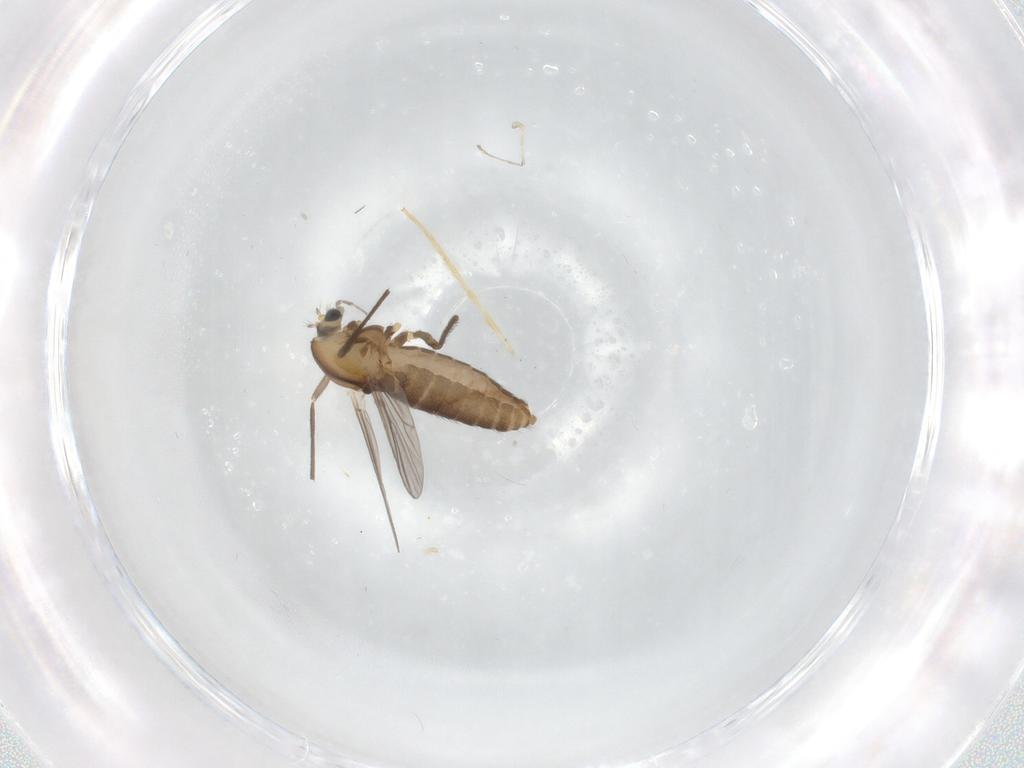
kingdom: Animalia
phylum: Arthropoda
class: Insecta
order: Diptera
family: Chironomidae
